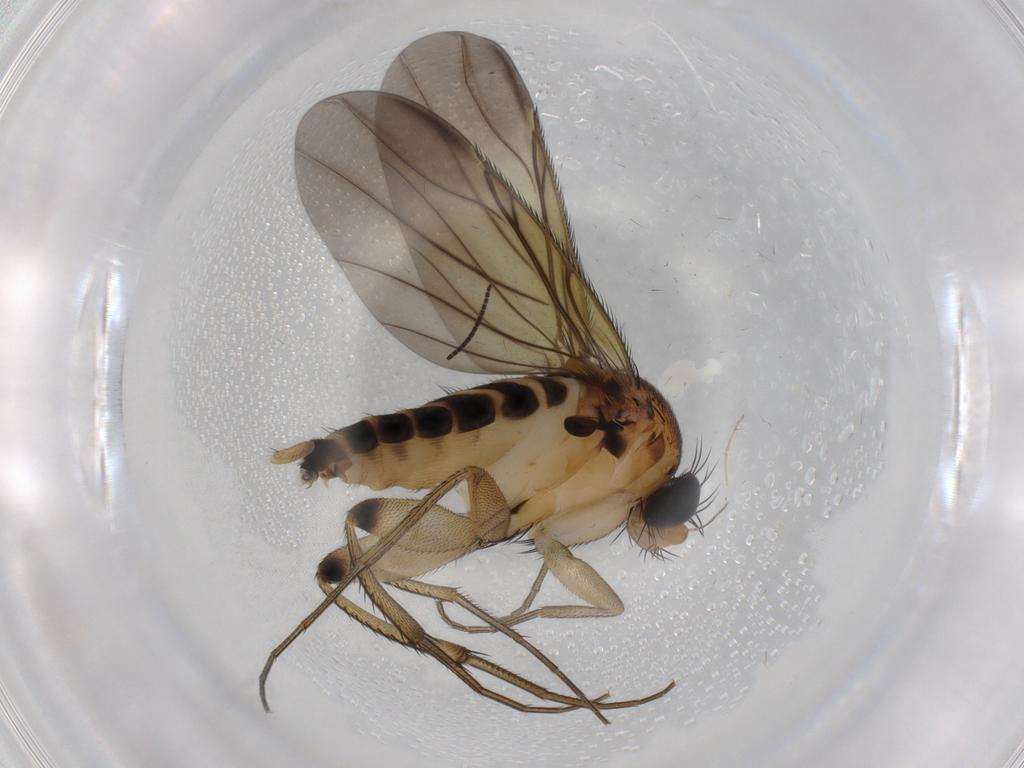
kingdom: Animalia
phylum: Arthropoda
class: Insecta
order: Diptera
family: Phoridae
